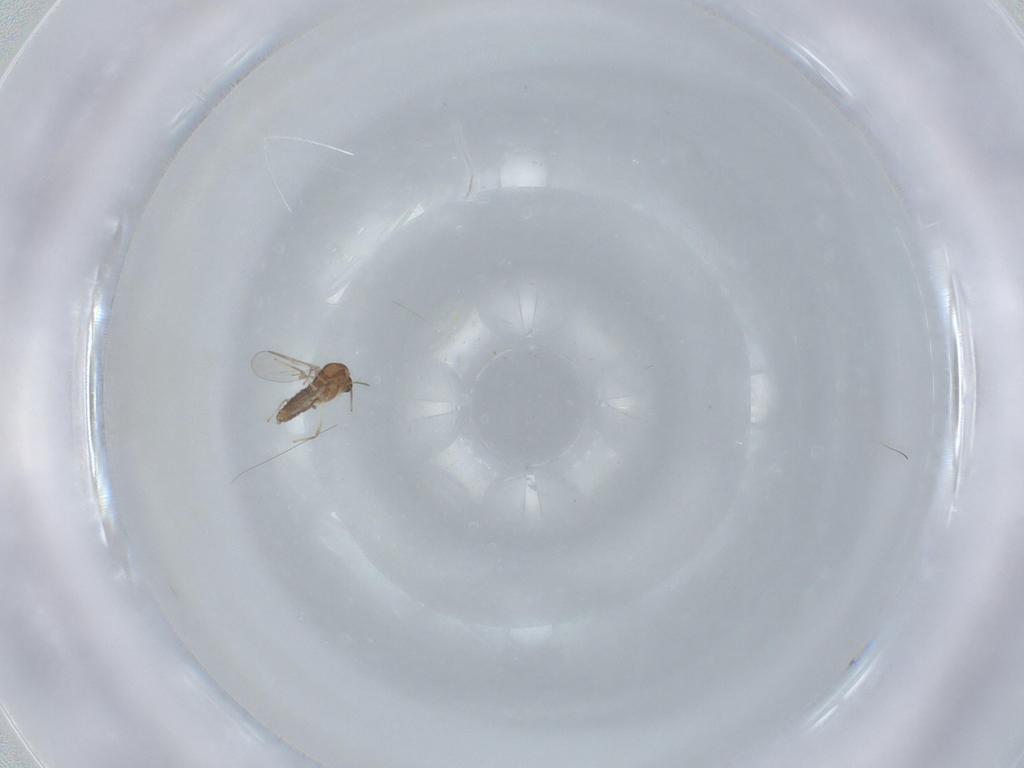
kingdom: Animalia
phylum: Arthropoda
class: Insecta
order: Diptera
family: Chironomidae
